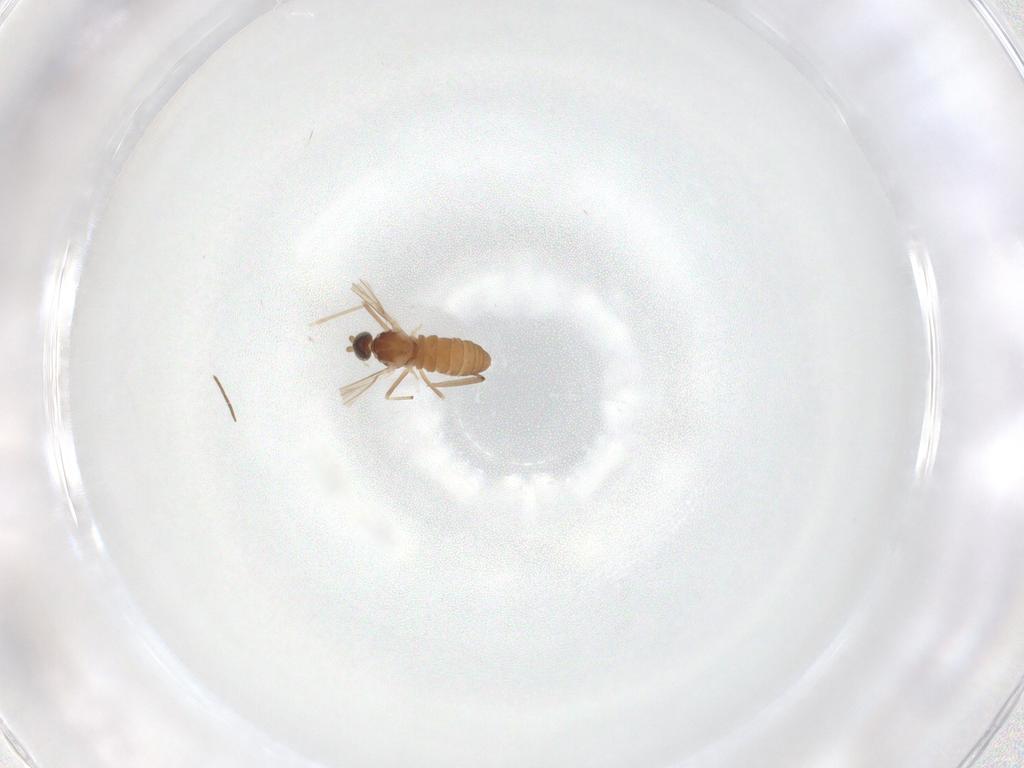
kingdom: Animalia
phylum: Arthropoda
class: Insecta
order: Diptera
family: Cecidomyiidae
